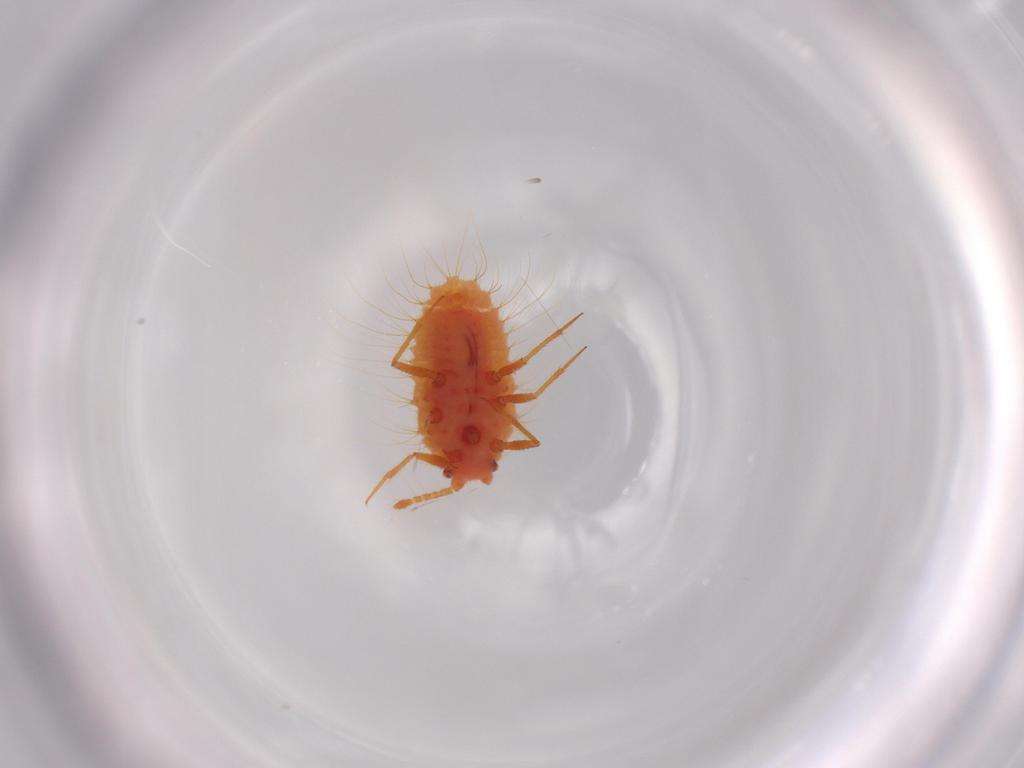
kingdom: Animalia
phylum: Arthropoda
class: Insecta
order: Hemiptera
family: Coccoidea_incertae_sedis
